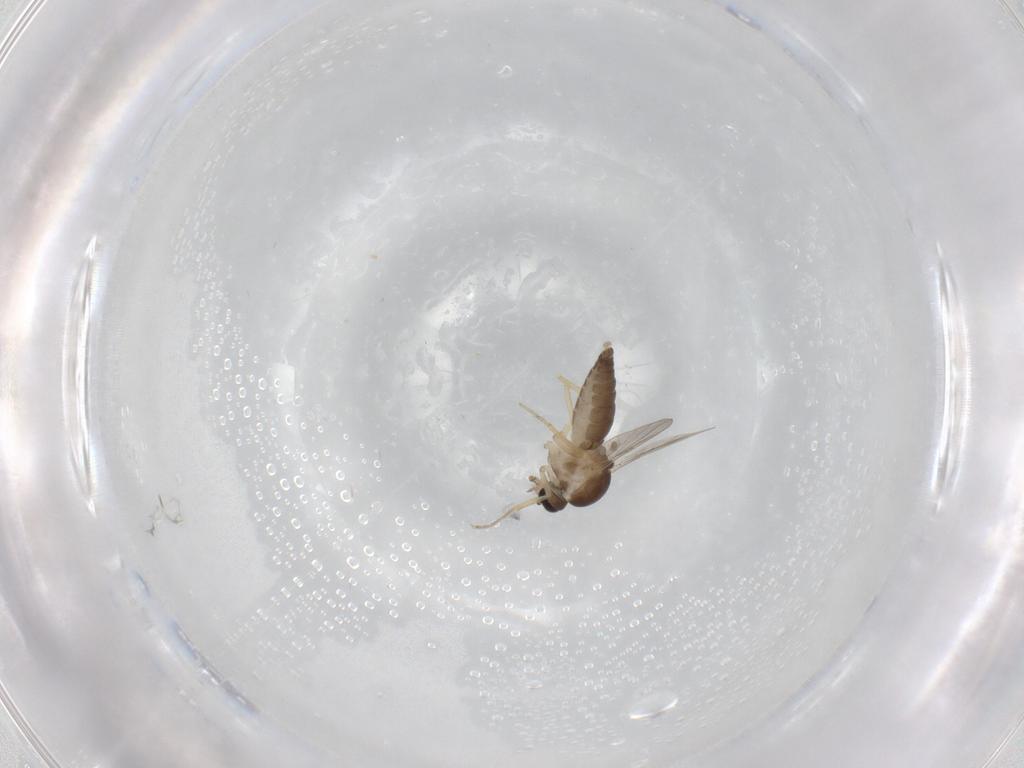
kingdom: Animalia
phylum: Arthropoda
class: Insecta
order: Diptera
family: Ceratopogonidae
